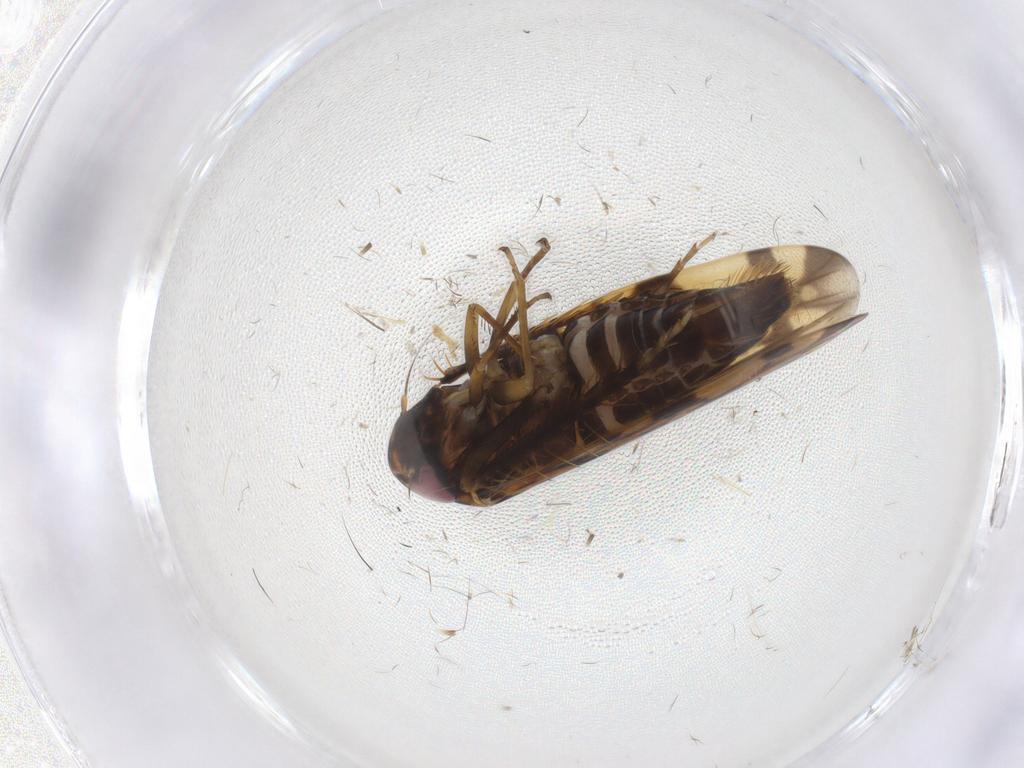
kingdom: Animalia
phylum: Arthropoda
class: Insecta
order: Hemiptera
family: Cicadellidae
